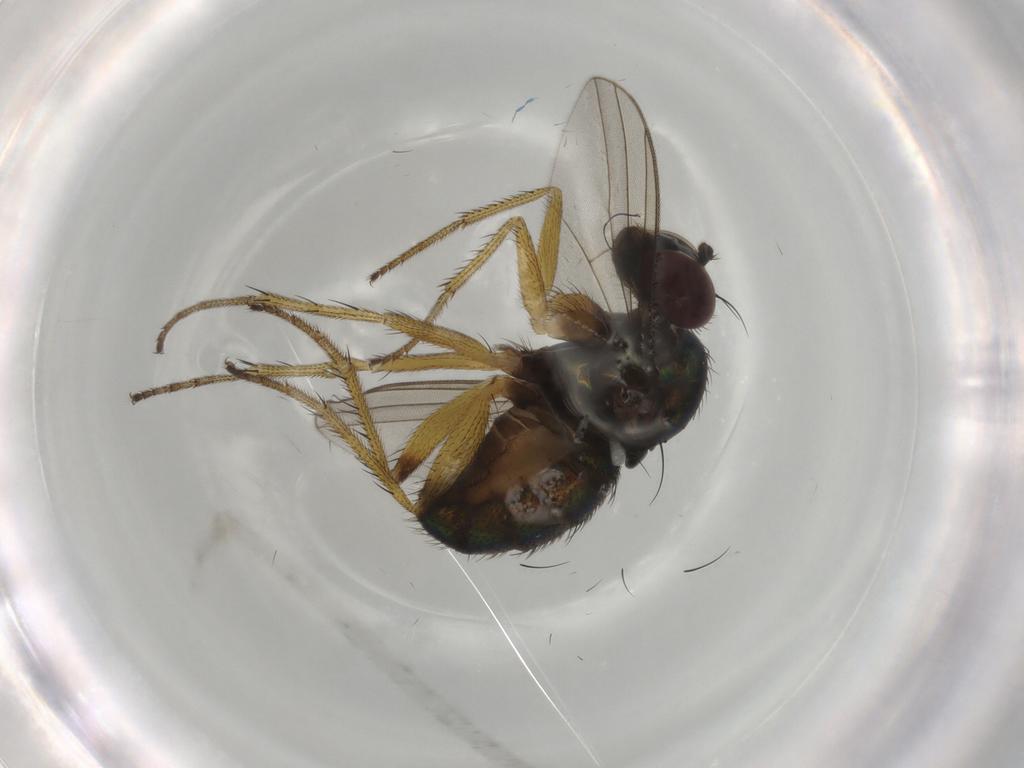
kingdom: Animalia
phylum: Arthropoda
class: Insecta
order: Diptera
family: Dolichopodidae
